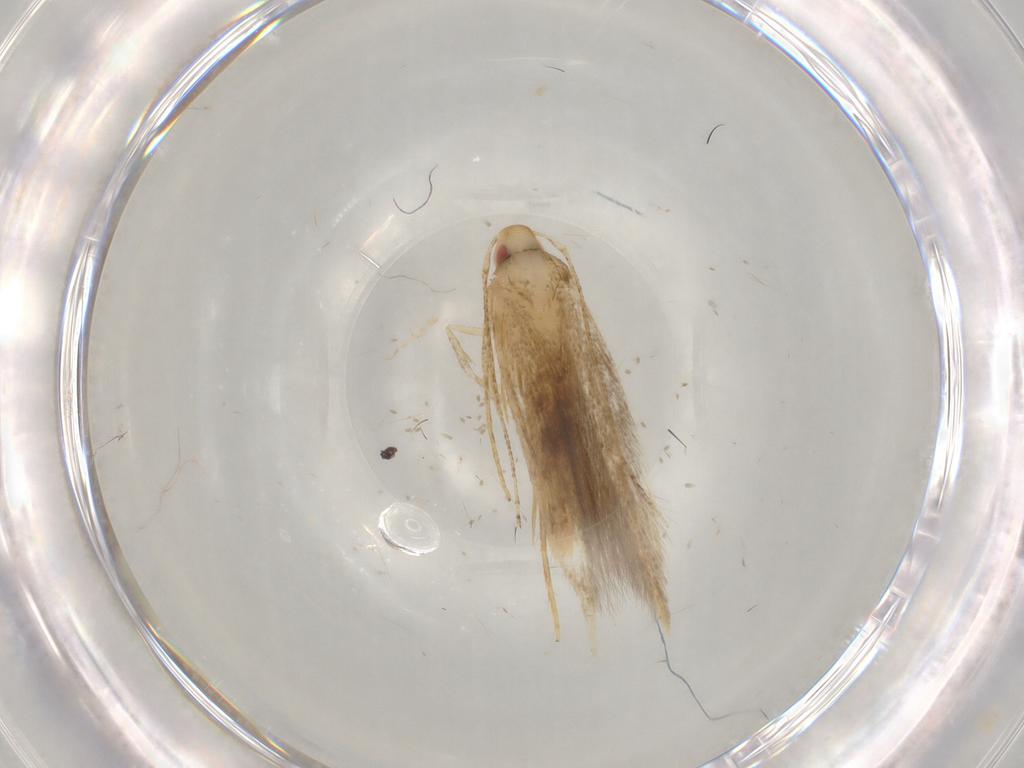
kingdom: Animalia
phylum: Arthropoda
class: Insecta
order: Lepidoptera
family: Gelechiidae
